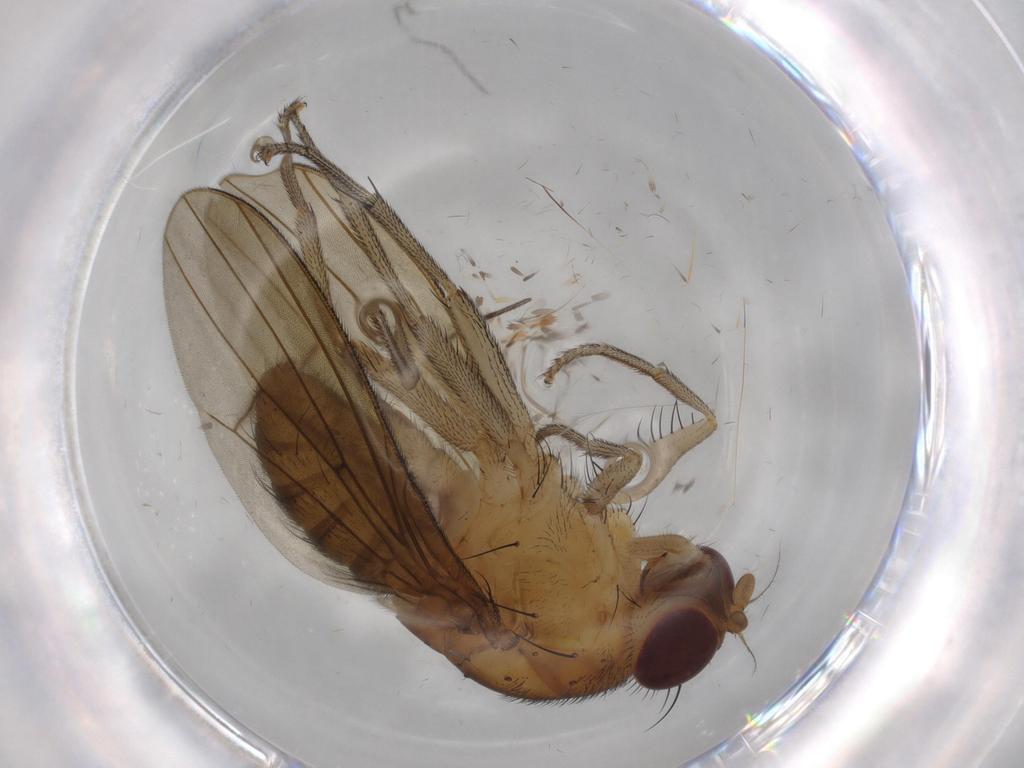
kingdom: Animalia
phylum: Arthropoda
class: Insecta
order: Diptera
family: Lauxaniidae
